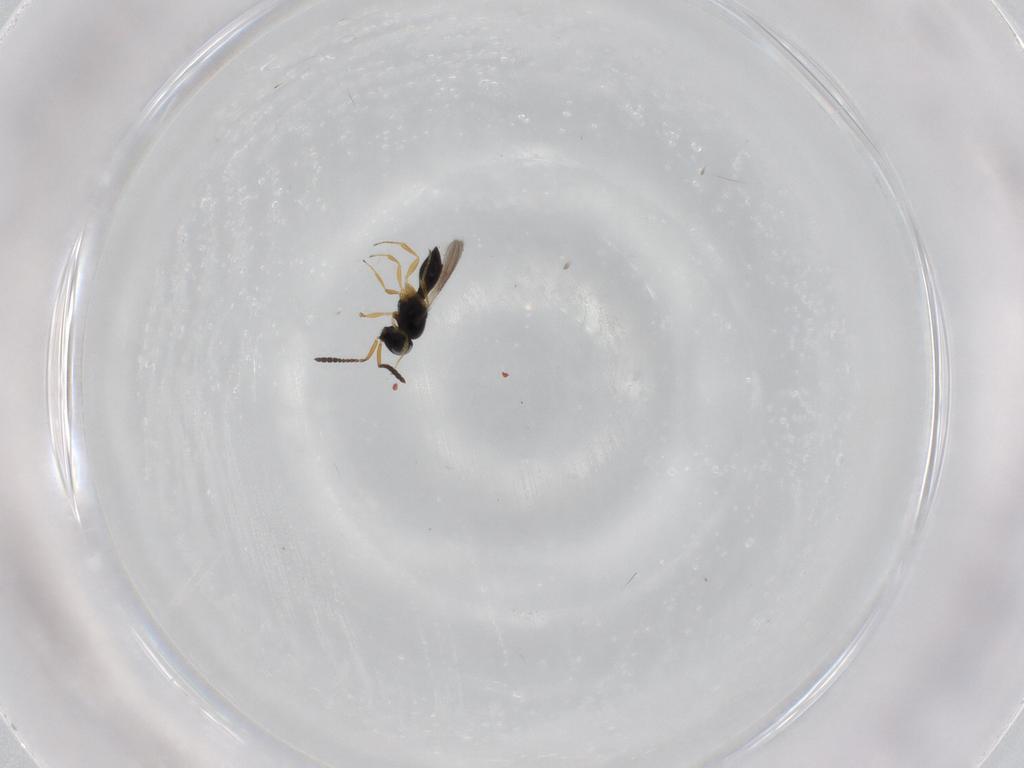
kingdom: Animalia
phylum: Arthropoda
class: Insecta
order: Hymenoptera
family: Scelionidae
